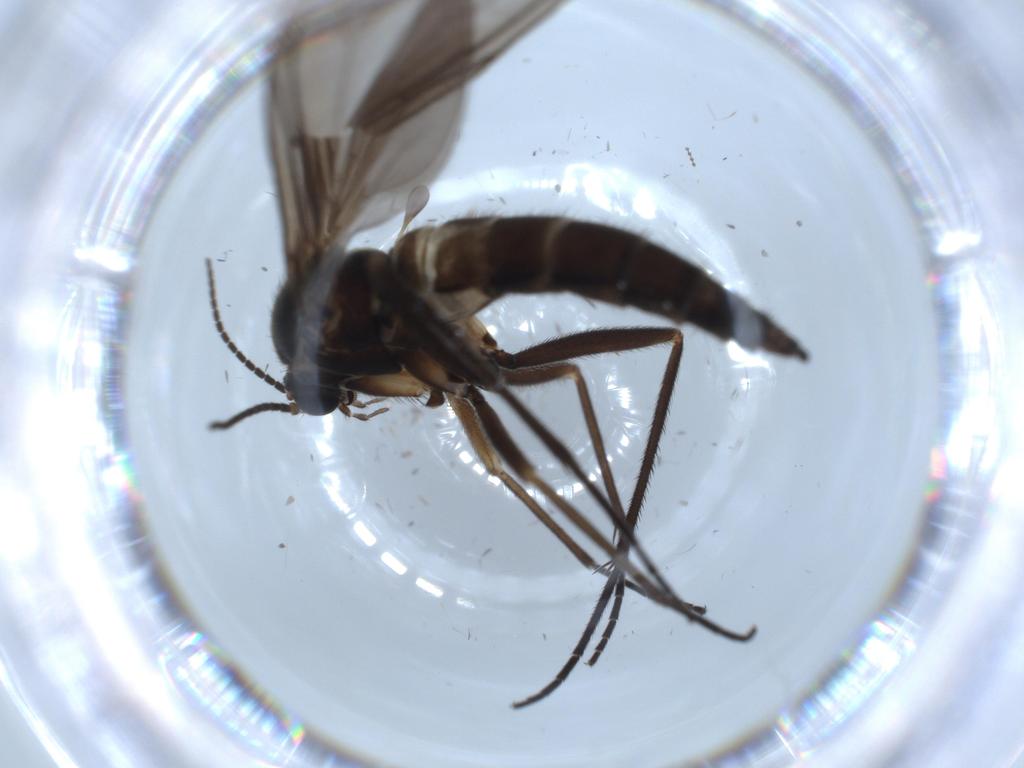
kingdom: Animalia
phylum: Arthropoda
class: Insecta
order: Diptera
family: Sciaridae
